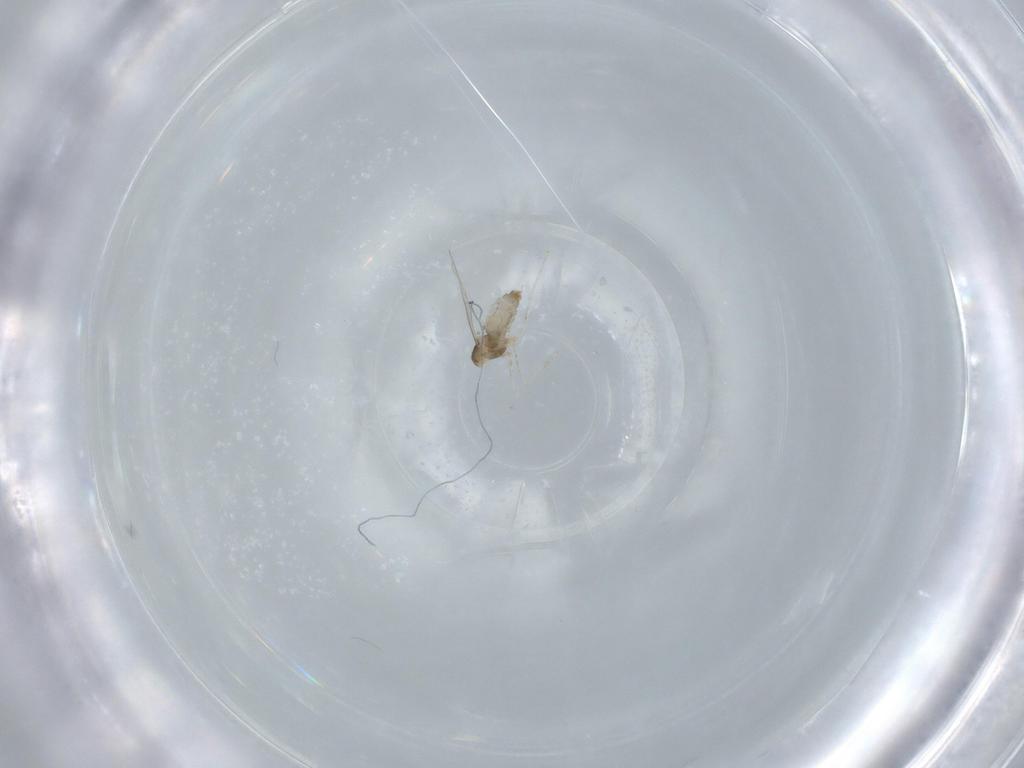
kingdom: Animalia
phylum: Arthropoda
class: Insecta
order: Diptera
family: Cecidomyiidae
